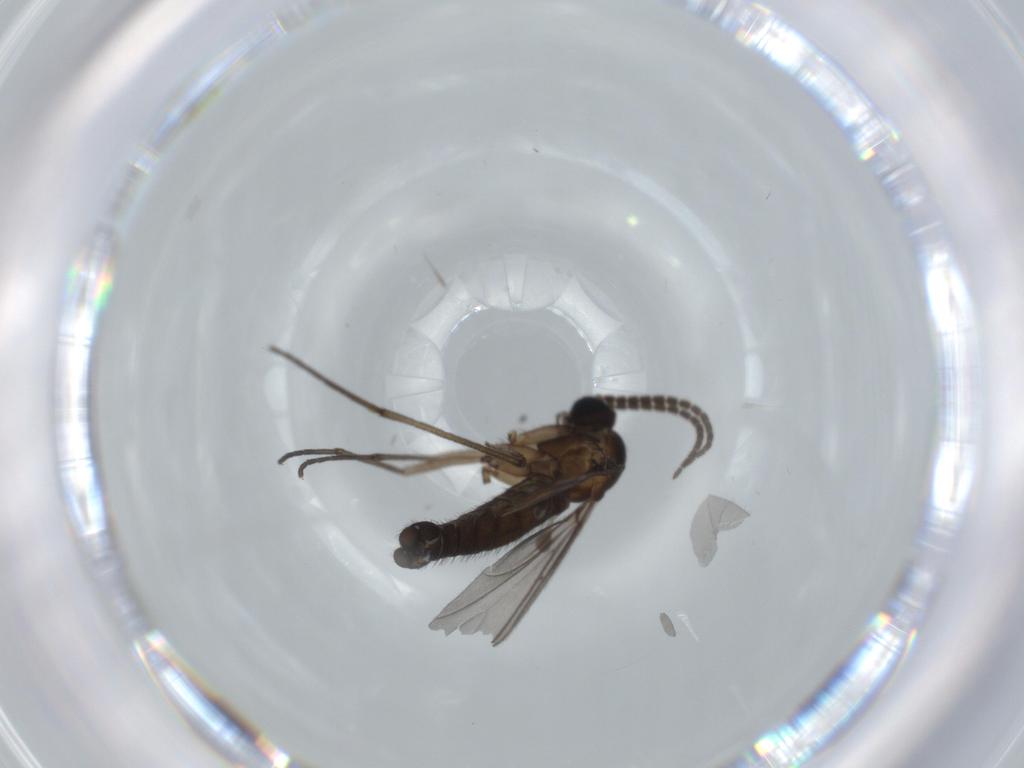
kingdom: Animalia
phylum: Arthropoda
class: Insecta
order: Diptera
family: Sciaridae
